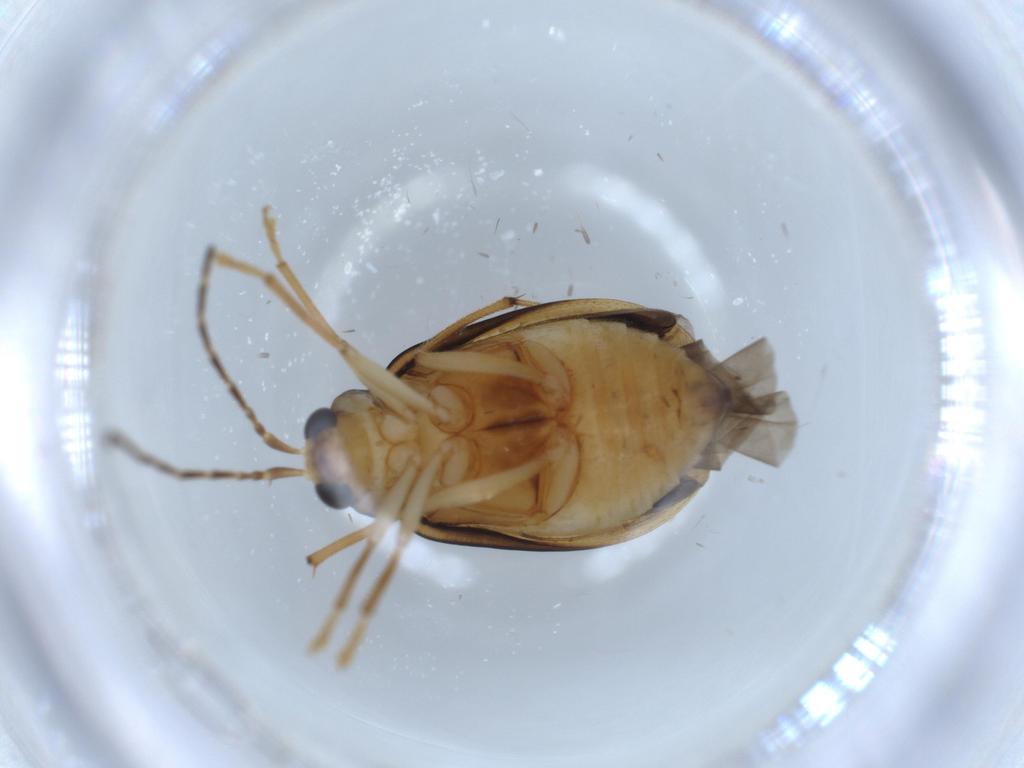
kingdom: Animalia
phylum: Arthropoda
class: Insecta
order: Coleoptera
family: Chrysomelidae
